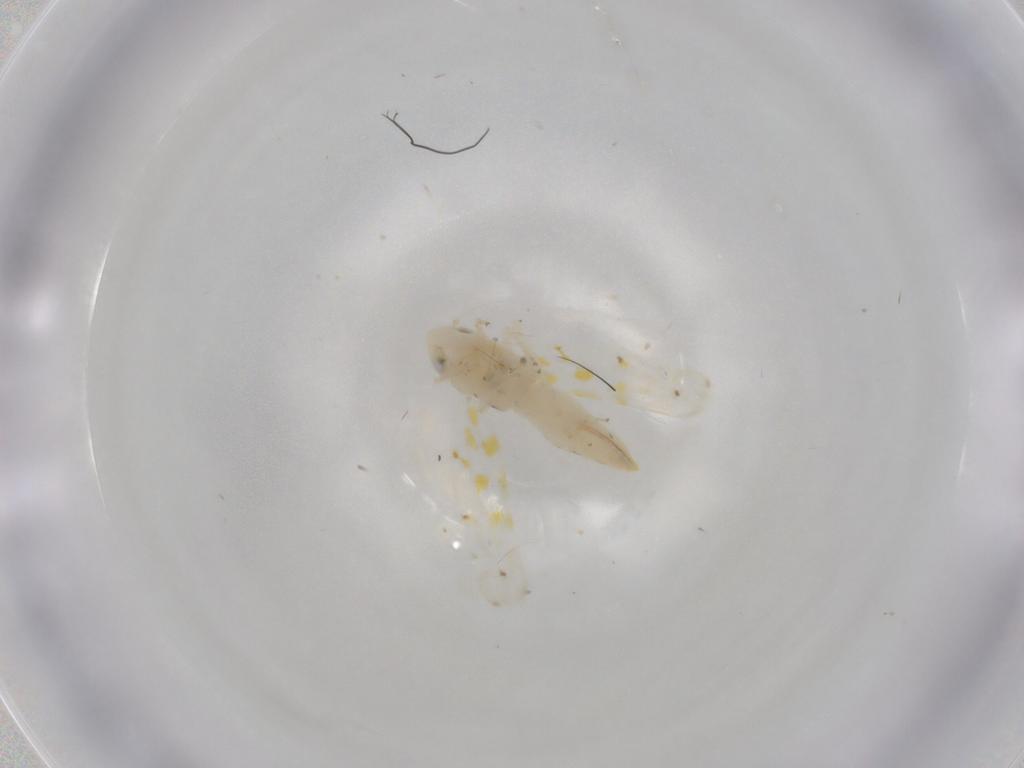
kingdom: Animalia
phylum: Arthropoda
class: Insecta
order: Hemiptera
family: Cicadellidae
